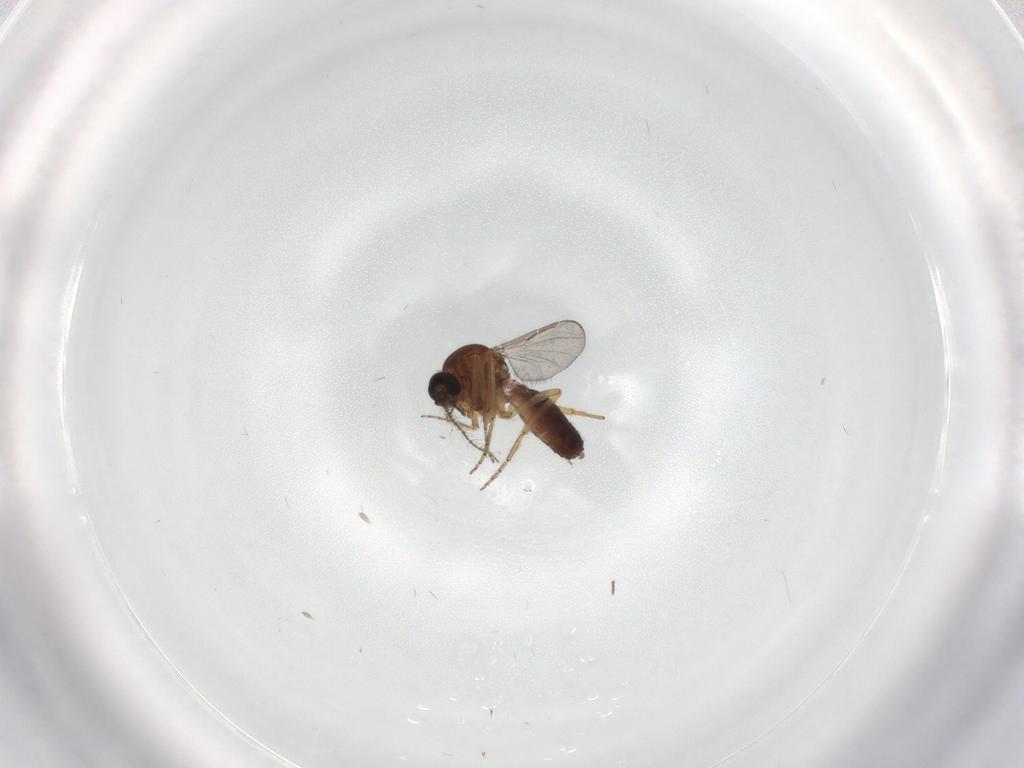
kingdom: Animalia
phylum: Arthropoda
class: Insecta
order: Diptera
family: Ceratopogonidae
